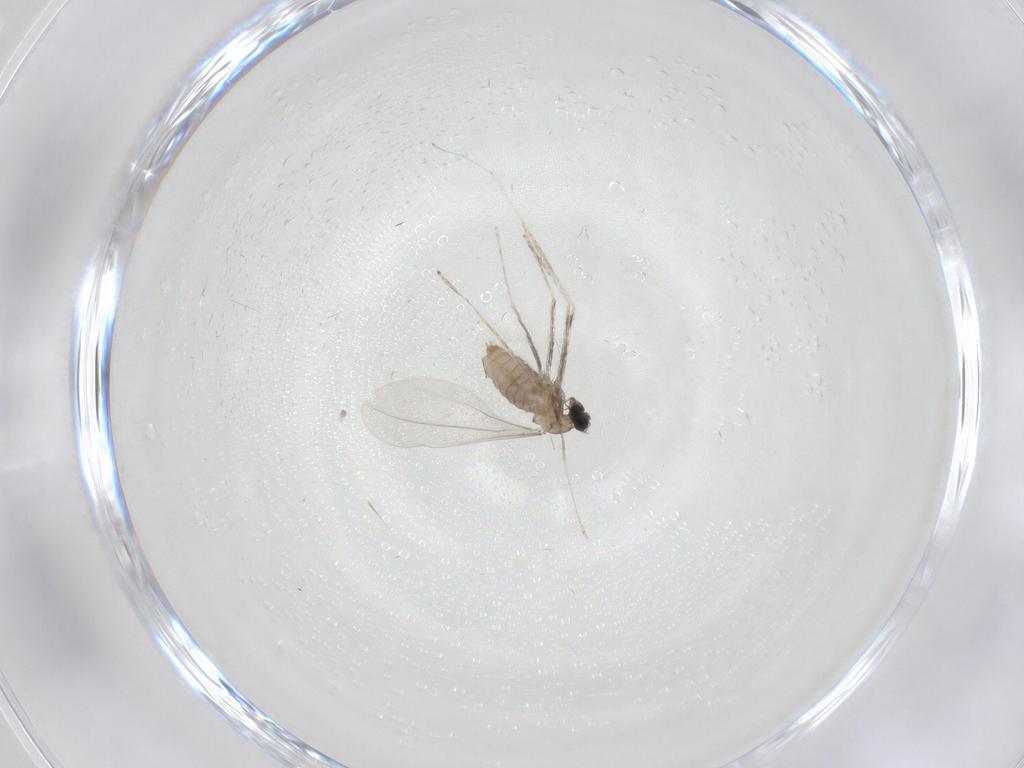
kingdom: Animalia
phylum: Arthropoda
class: Insecta
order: Diptera
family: Cecidomyiidae
